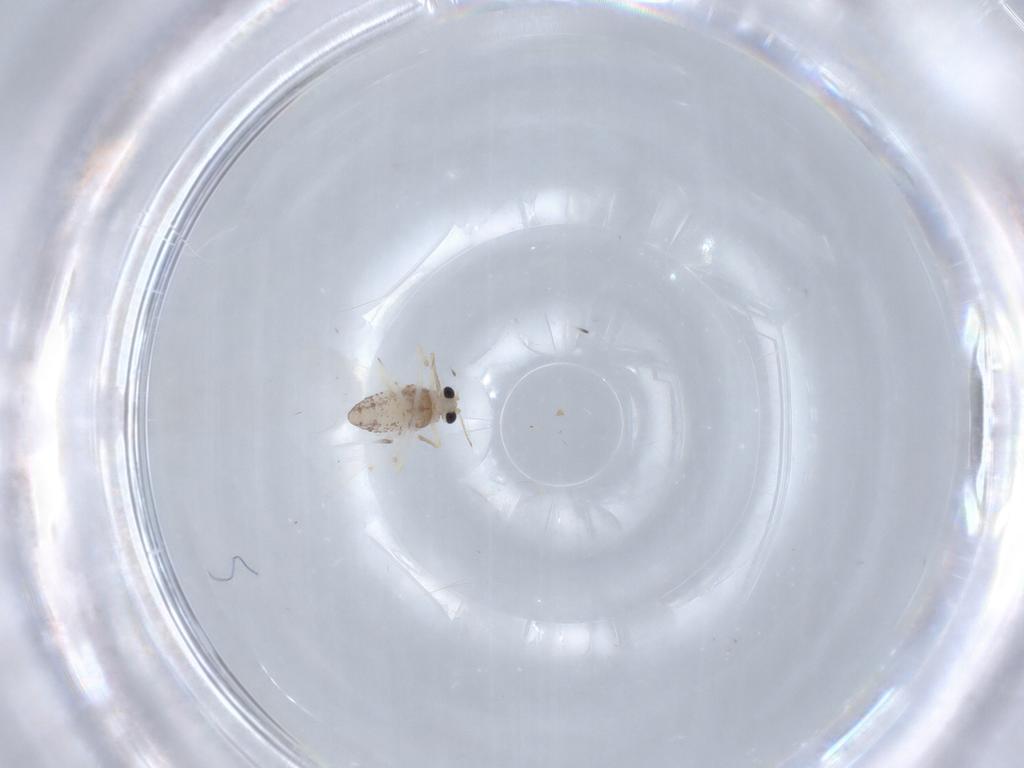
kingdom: Animalia
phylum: Arthropoda
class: Insecta
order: Diptera
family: Chironomidae
